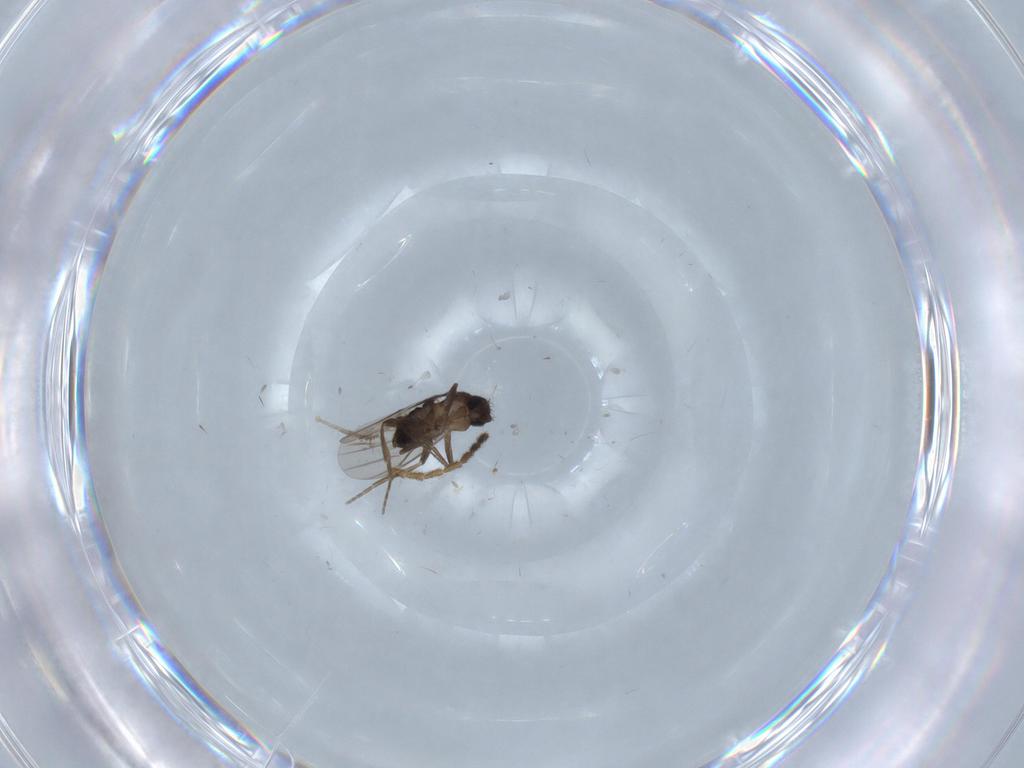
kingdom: Animalia
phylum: Arthropoda
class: Insecta
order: Diptera
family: Phoridae
